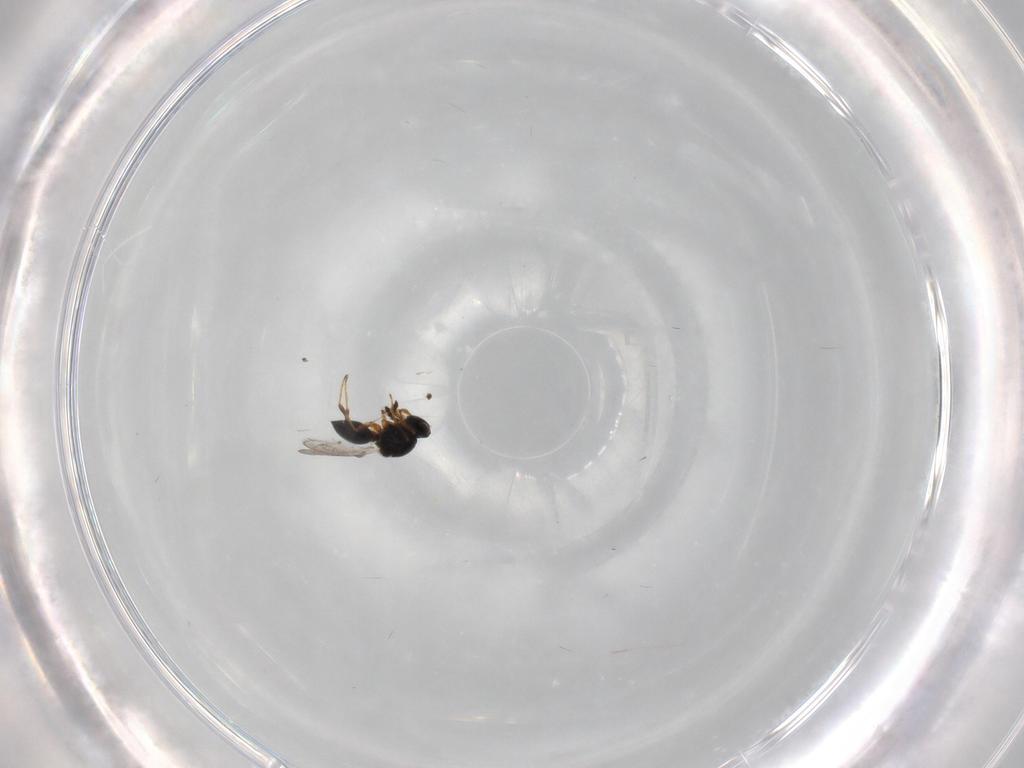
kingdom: Animalia
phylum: Arthropoda
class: Insecta
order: Hymenoptera
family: Platygastridae
